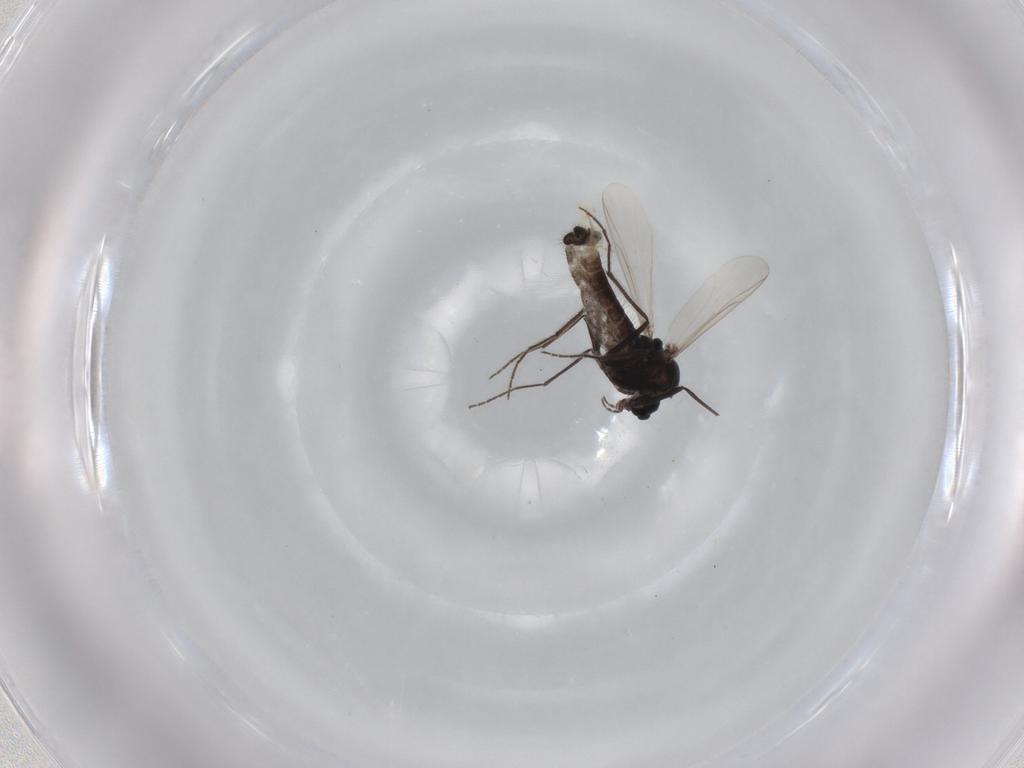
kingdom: Animalia
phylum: Arthropoda
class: Insecta
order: Diptera
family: Chironomidae
